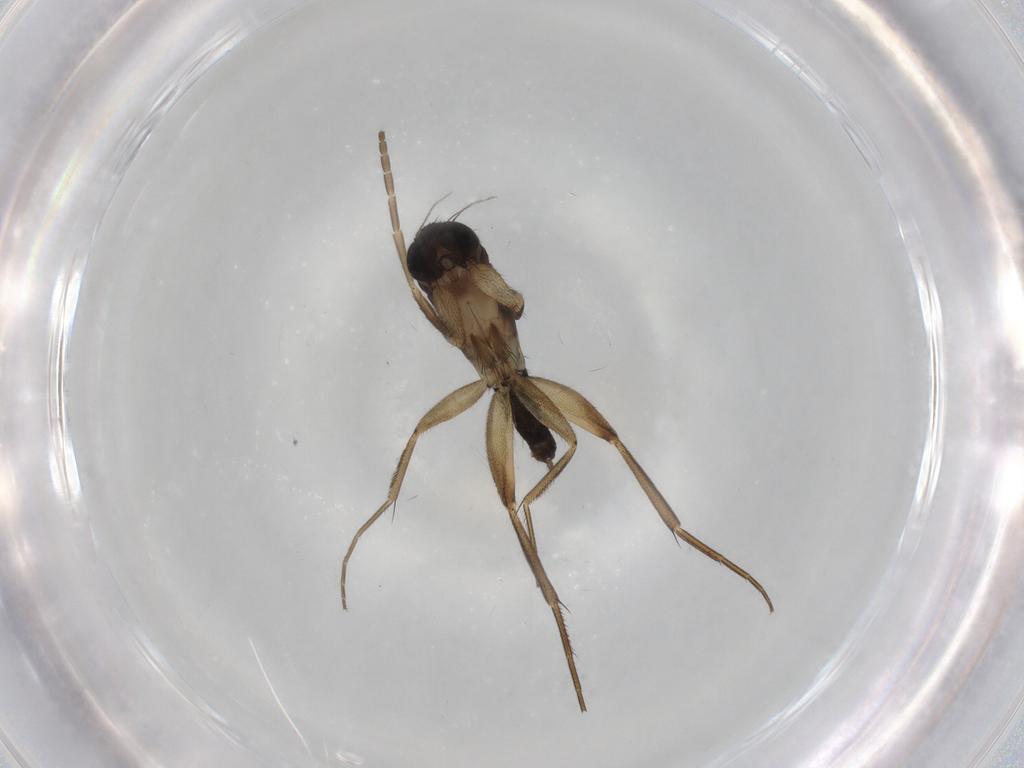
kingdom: Animalia
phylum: Arthropoda
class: Insecta
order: Diptera
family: Phoridae
